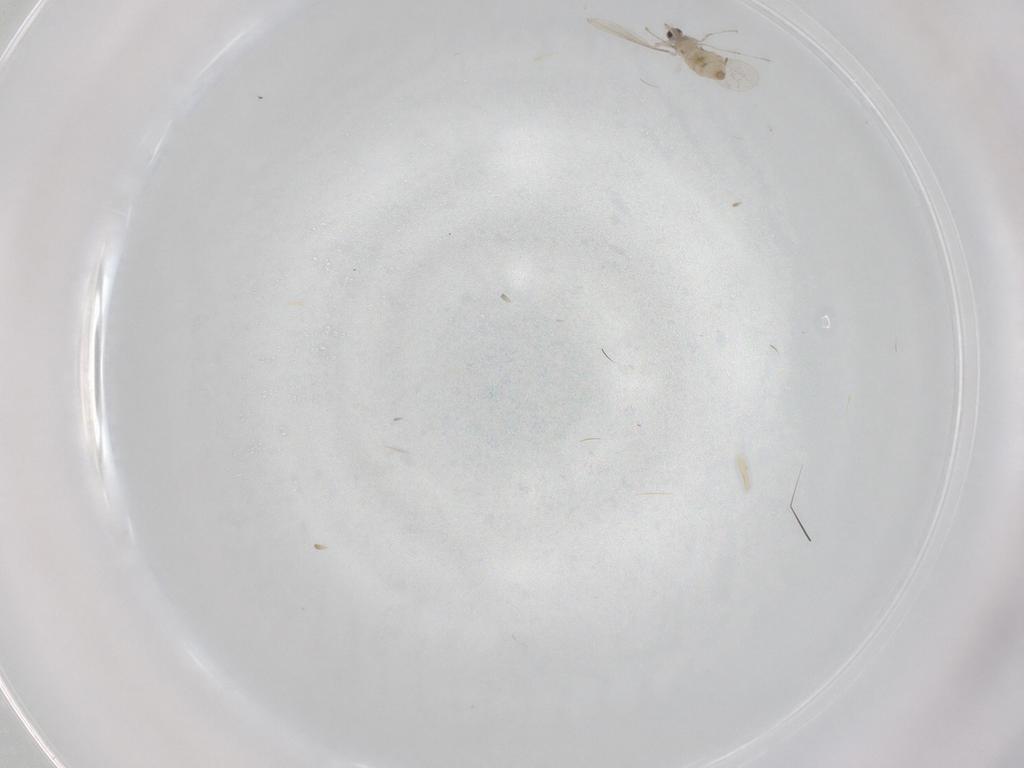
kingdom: Animalia
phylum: Arthropoda
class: Insecta
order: Diptera
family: Cecidomyiidae
